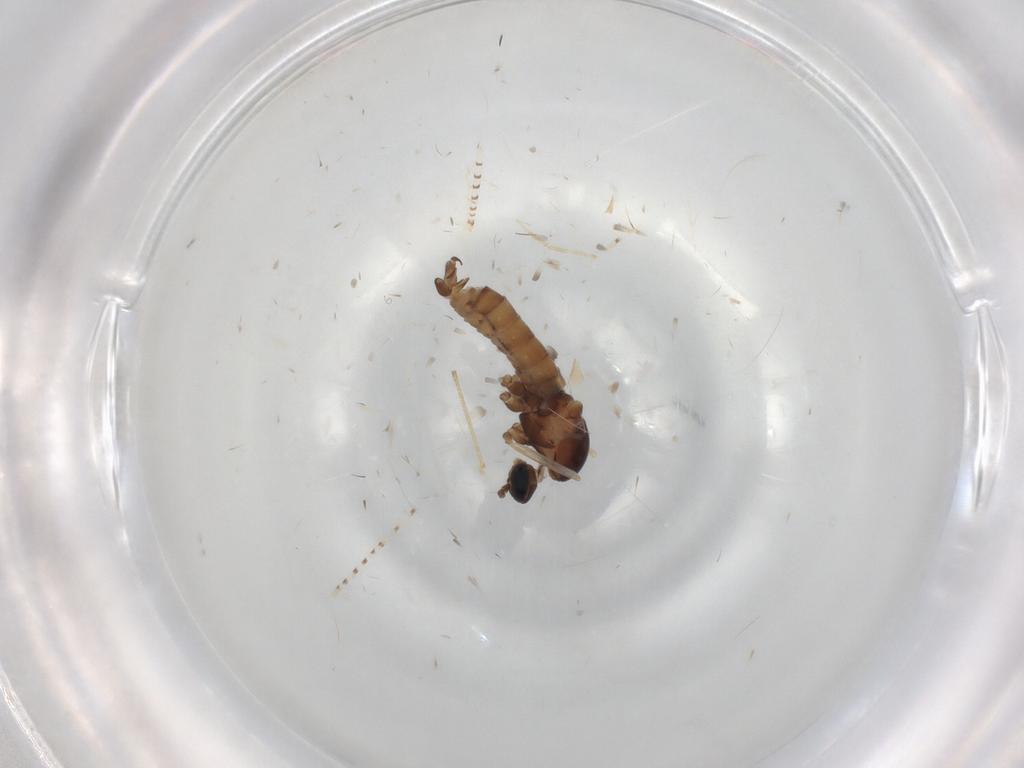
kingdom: Animalia
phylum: Arthropoda
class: Insecta
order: Diptera
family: Cecidomyiidae
